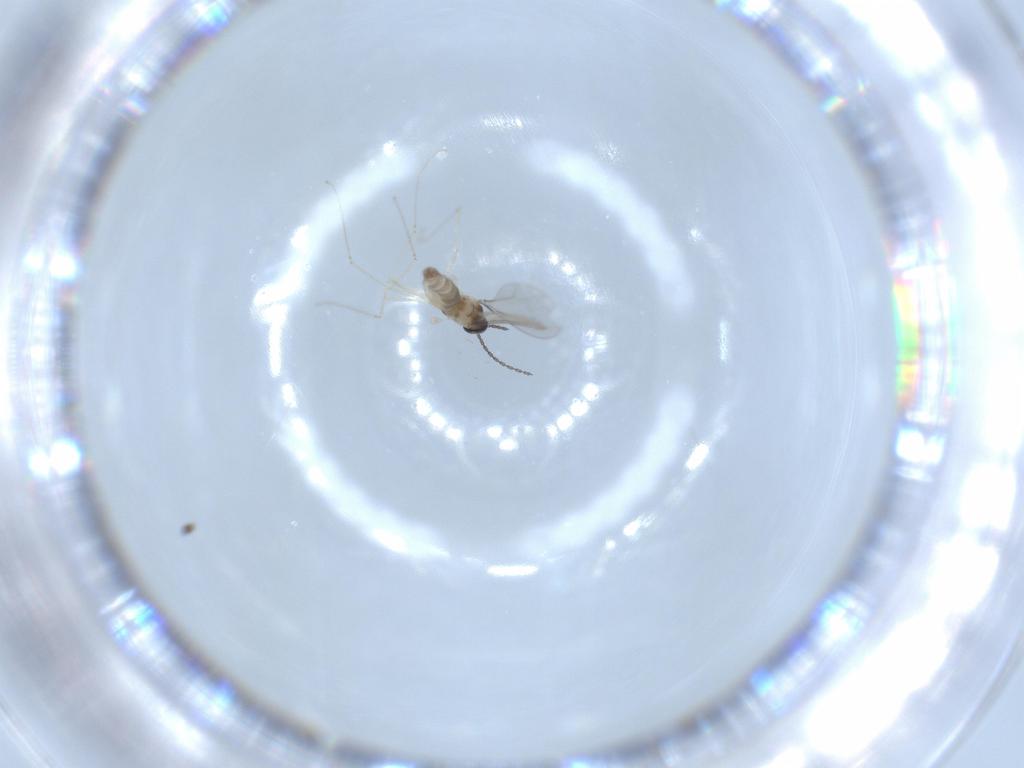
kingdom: Animalia
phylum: Arthropoda
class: Insecta
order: Diptera
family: Cecidomyiidae
